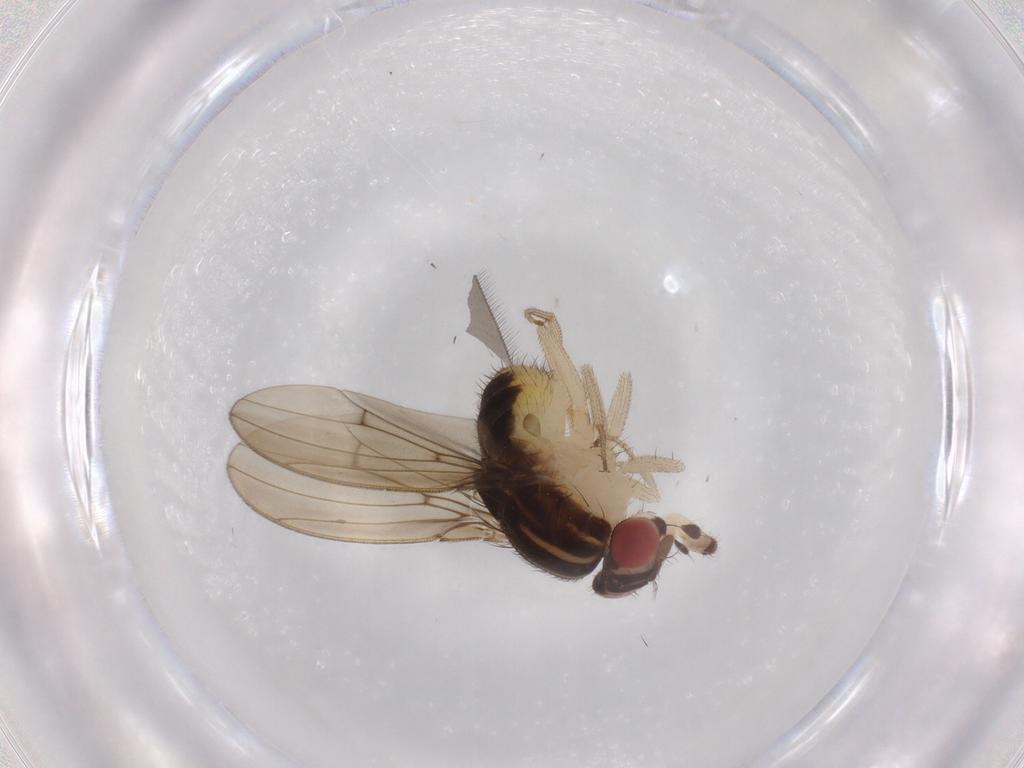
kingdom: Animalia
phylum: Arthropoda
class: Insecta
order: Diptera
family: Drosophilidae
